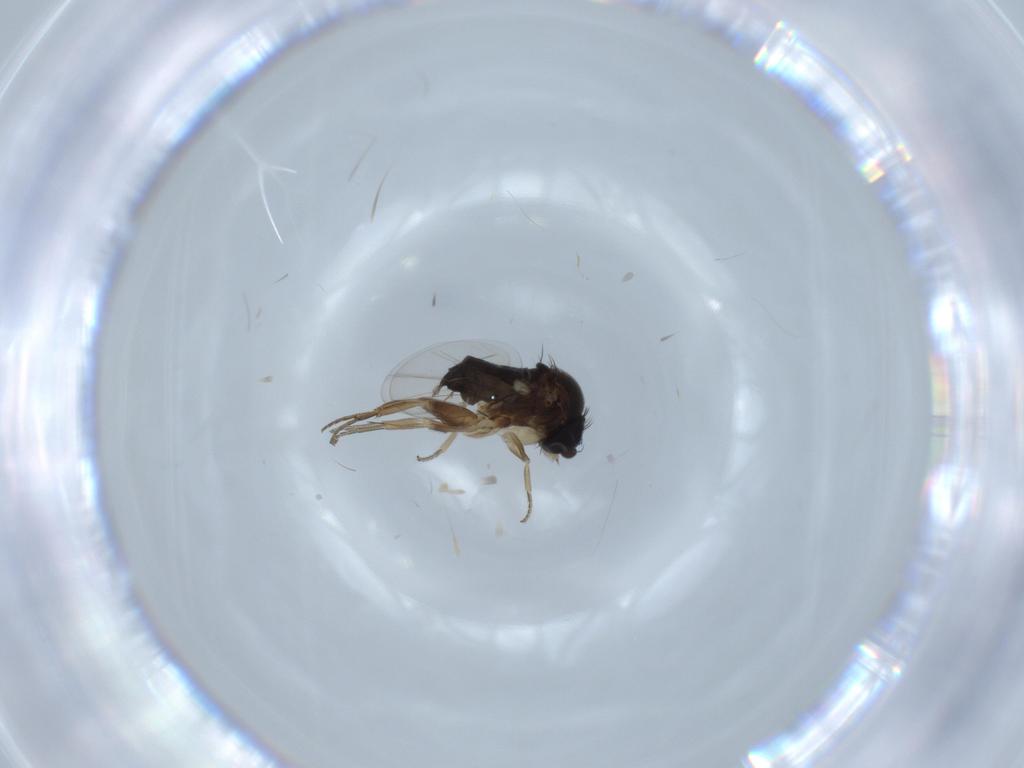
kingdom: Animalia
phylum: Arthropoda
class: Insecta
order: Diptera
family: Phoridae
